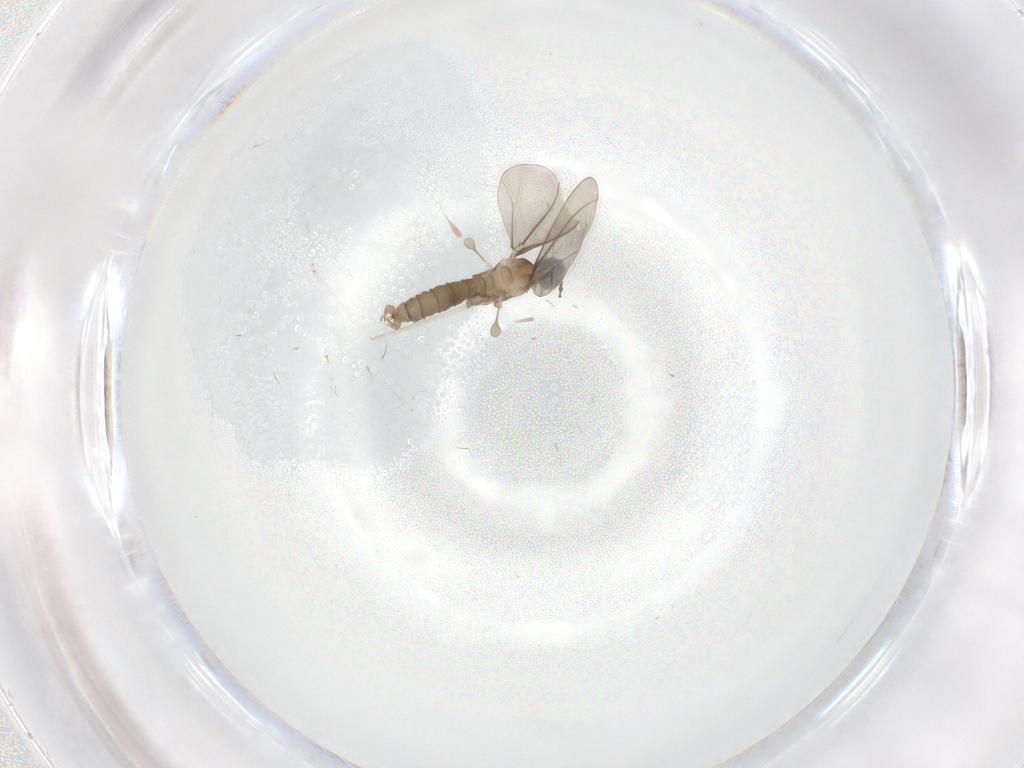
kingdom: Animalia
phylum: Arthropoda
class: Insecta
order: Diptera
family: Cecidomyiidae
